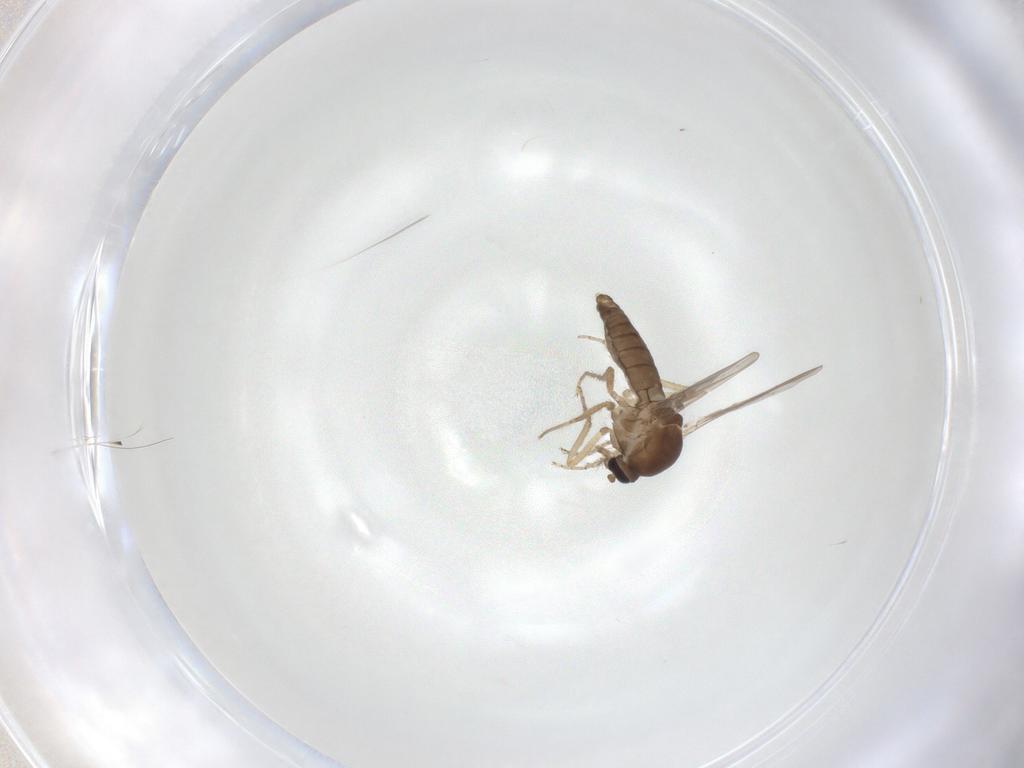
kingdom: Animalia
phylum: Arthropoda
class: Insecta
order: Diptera
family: Ceratopogonidae
